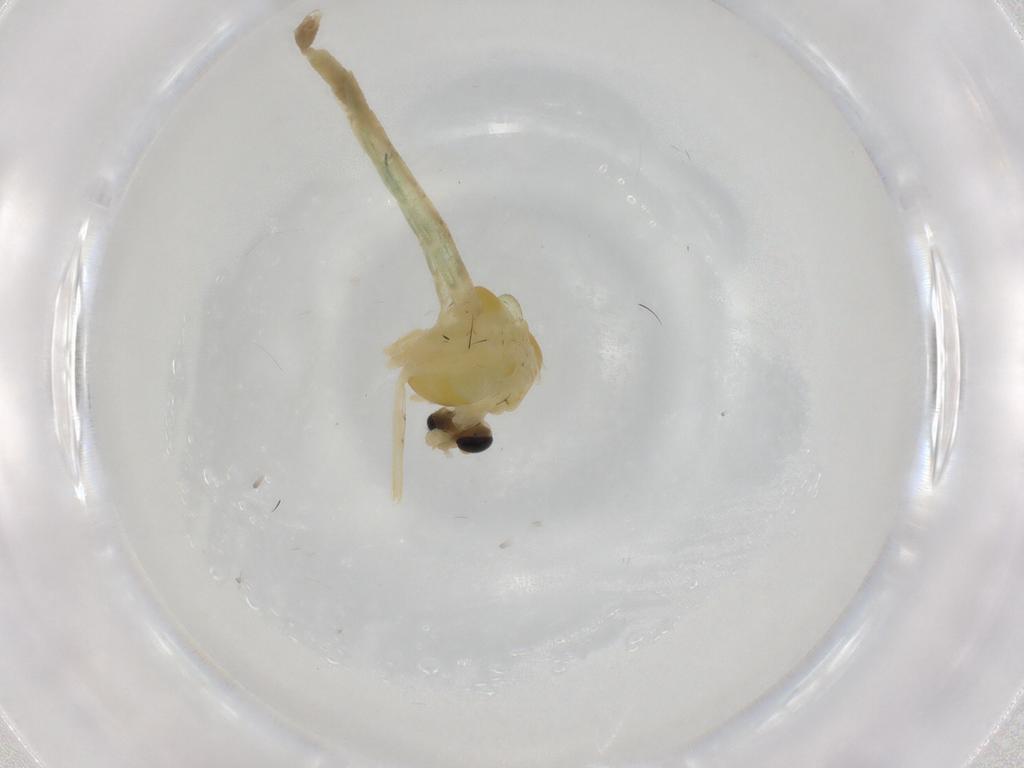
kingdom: Animalia
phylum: Arthropoda
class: Insecta
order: Diptera
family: Chironomidae
